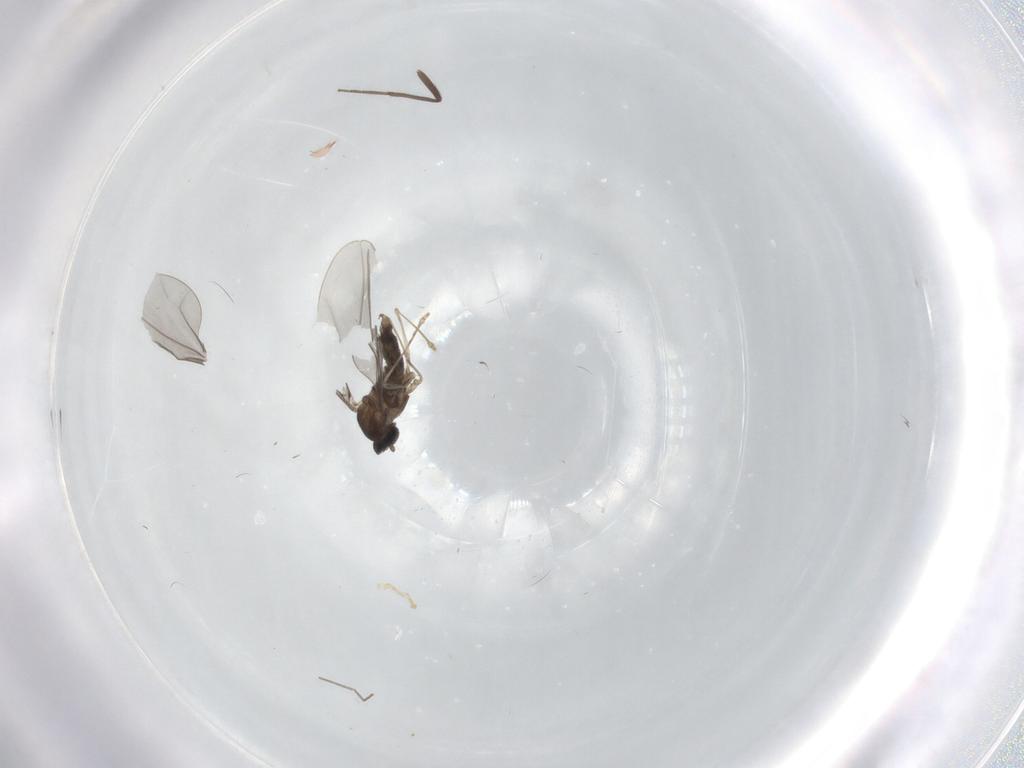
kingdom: Animalia
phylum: Arthropoda
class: Insecta
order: Diptera
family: Cecidomyiidae
